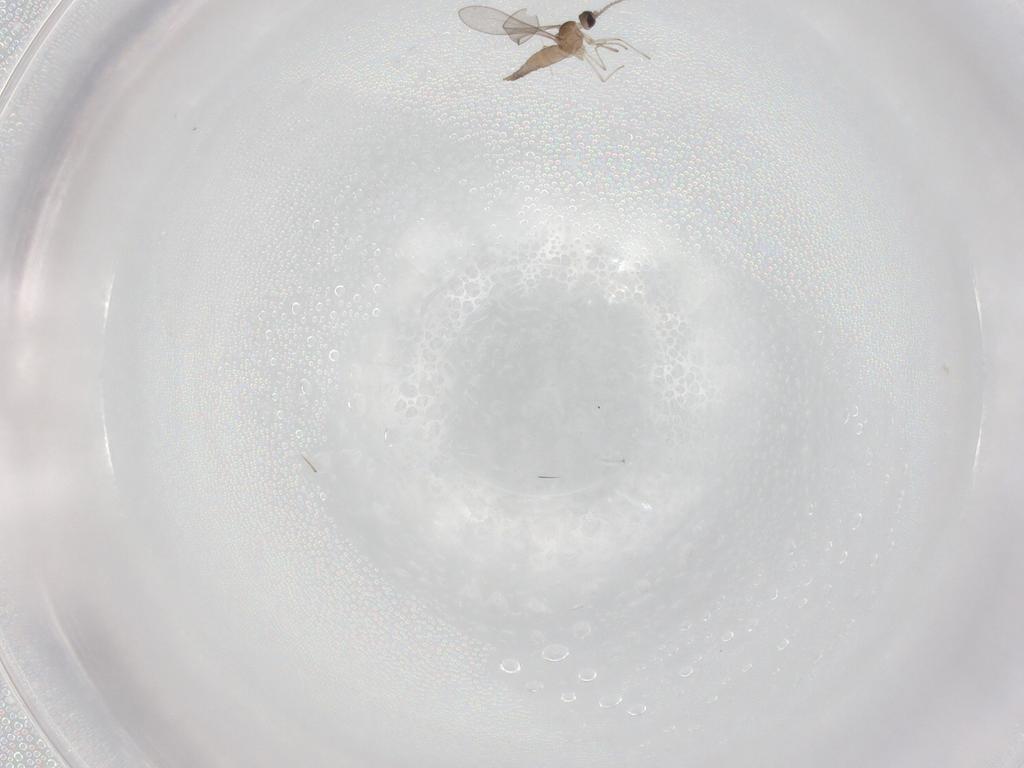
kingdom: Animalia
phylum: Arthropoda
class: Insecta
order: Diptera
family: Cecidomyiidae
